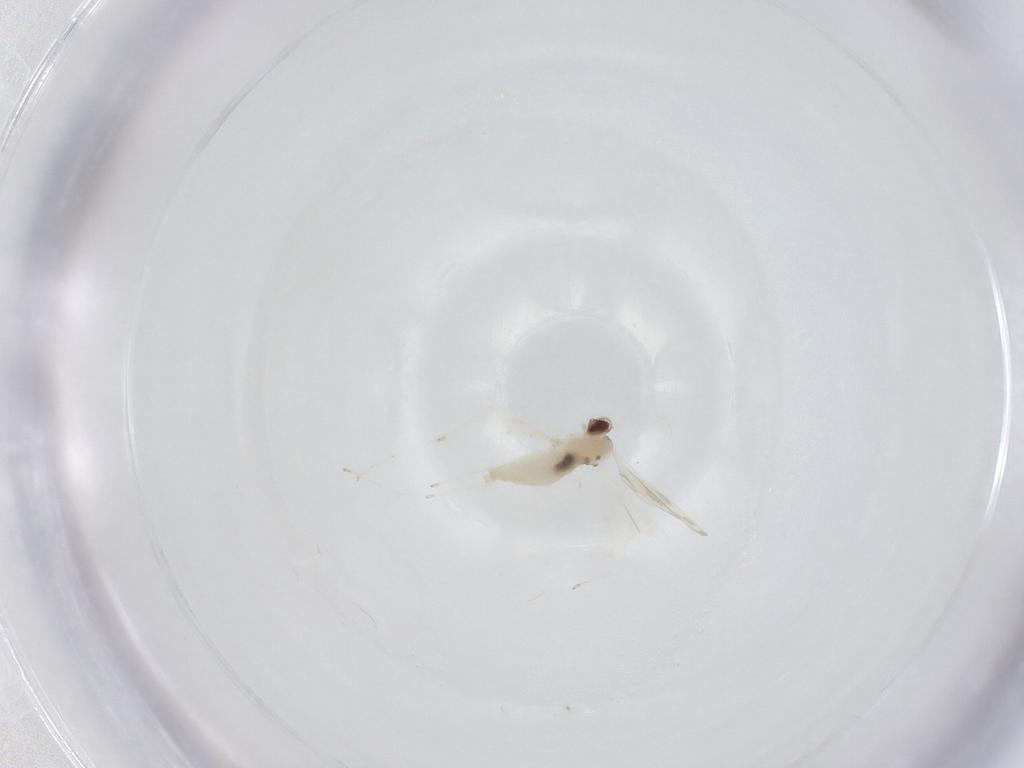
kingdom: Animalia
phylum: Arthropoda
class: Insecta
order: Diptera
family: Cecidomyiidae
